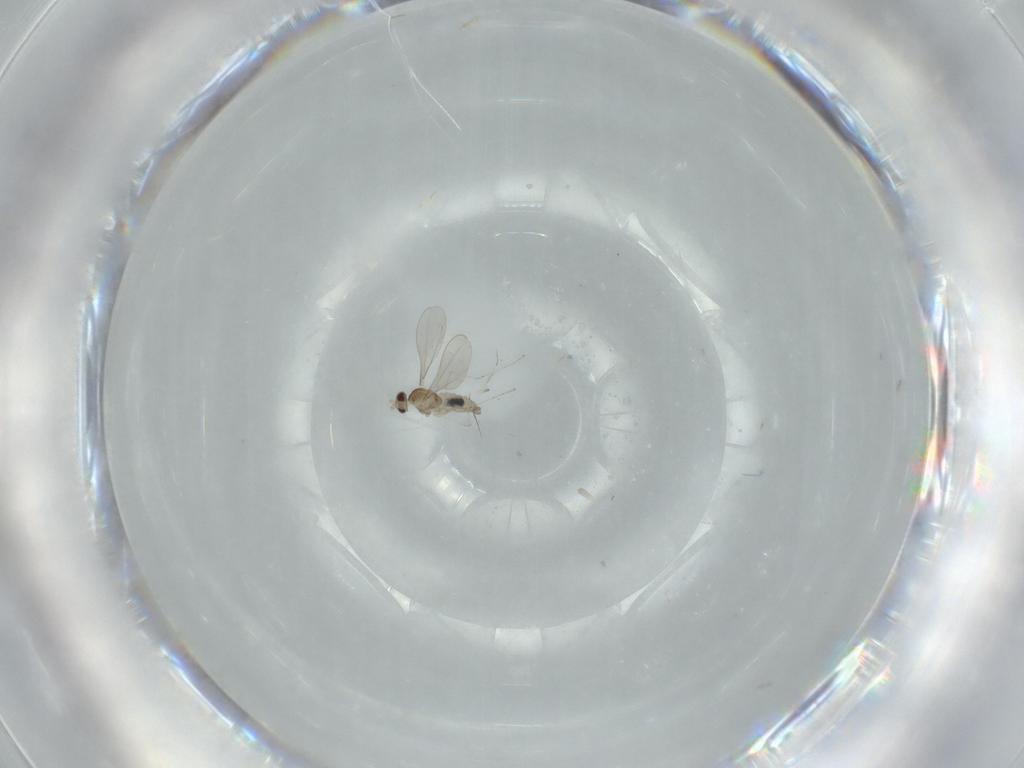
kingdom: Animalia
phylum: Arthropoda
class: Insecta
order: Diptera
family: Cecidomyiidae
